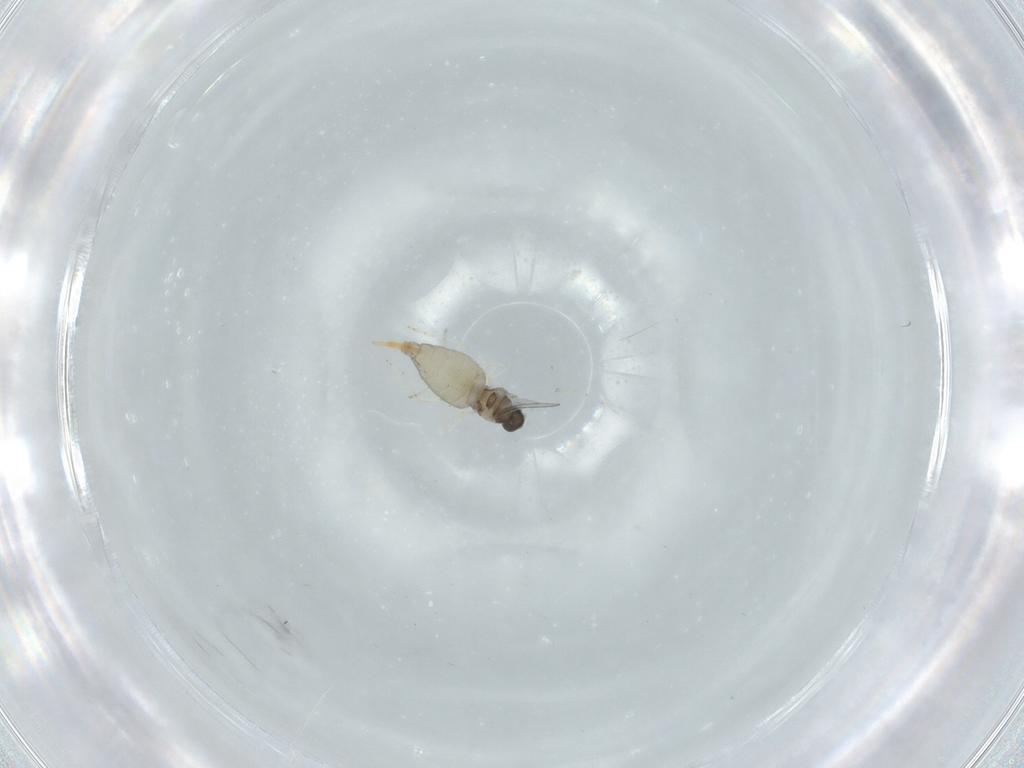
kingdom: Animalia
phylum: Arthropoda
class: Insecta
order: Diptera
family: Cecidomyiidae
